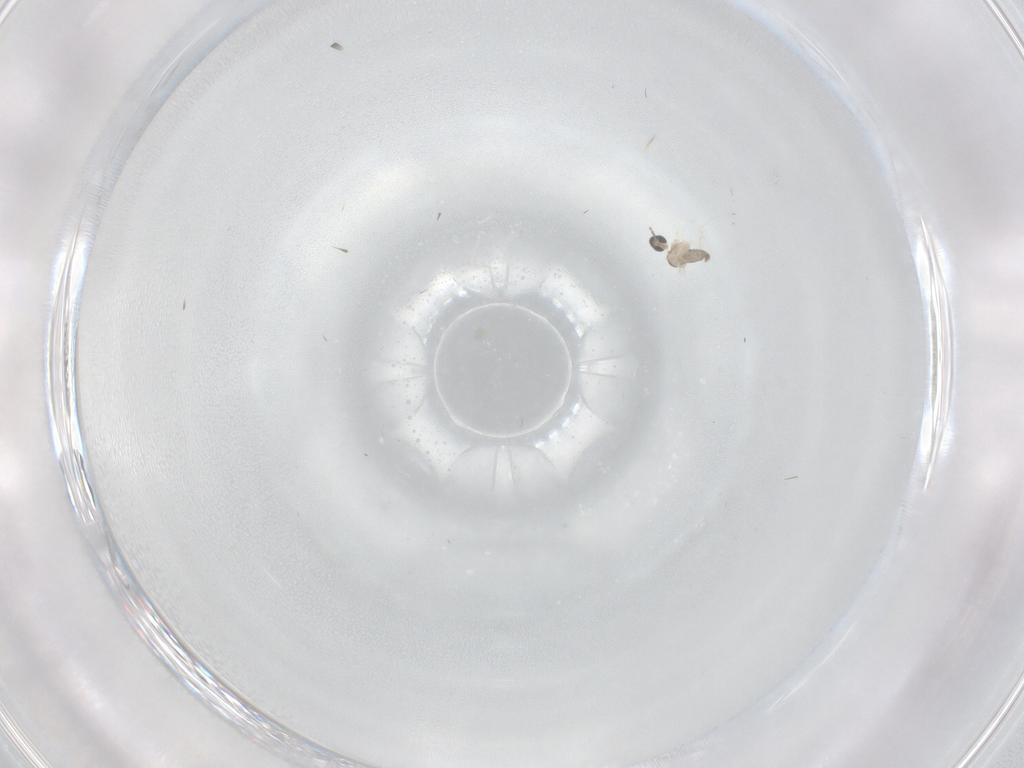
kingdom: Animalia
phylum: Arthropoda
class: Insecta
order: Diptera
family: Cecidomyiidae
